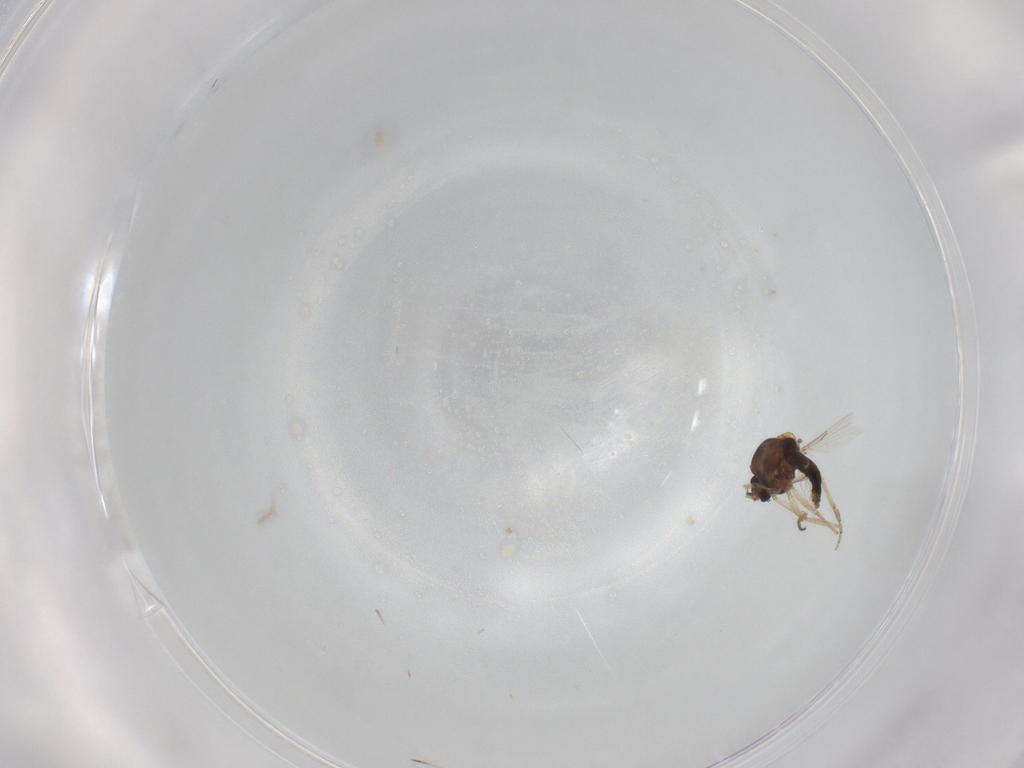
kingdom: Animalia
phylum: Arthropoda
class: Insecta
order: Diptera
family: Ceratopogonidae
